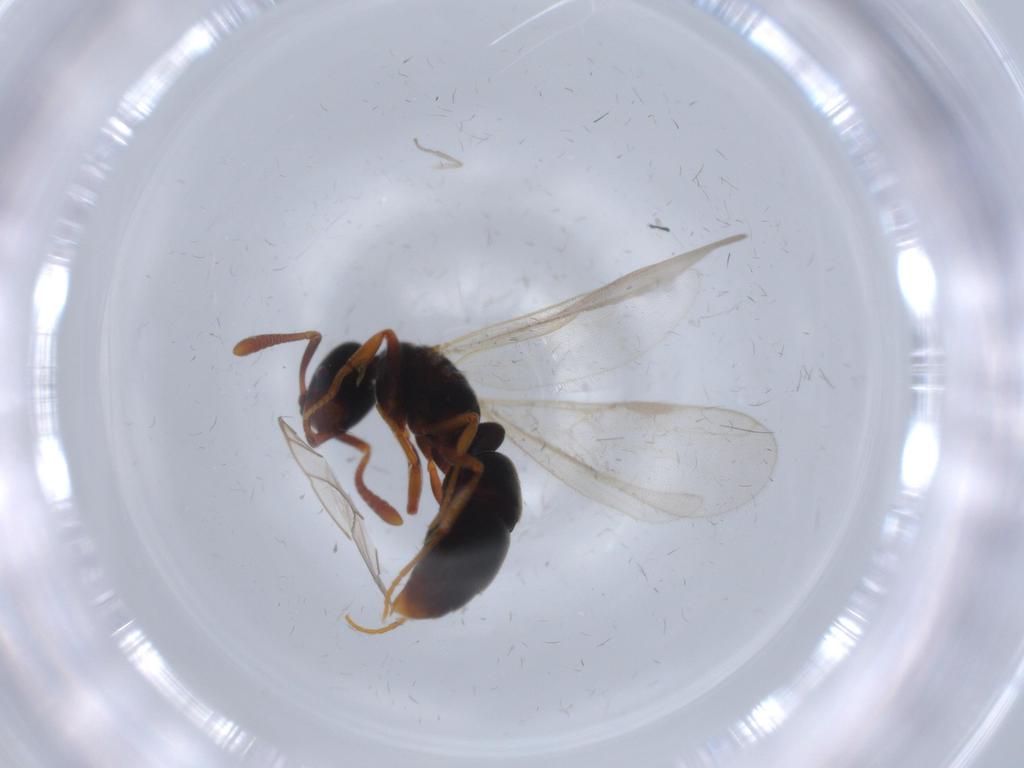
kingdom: Animalia
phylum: Arthropoda
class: Insecta
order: Hymenoptera
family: Formicidae
